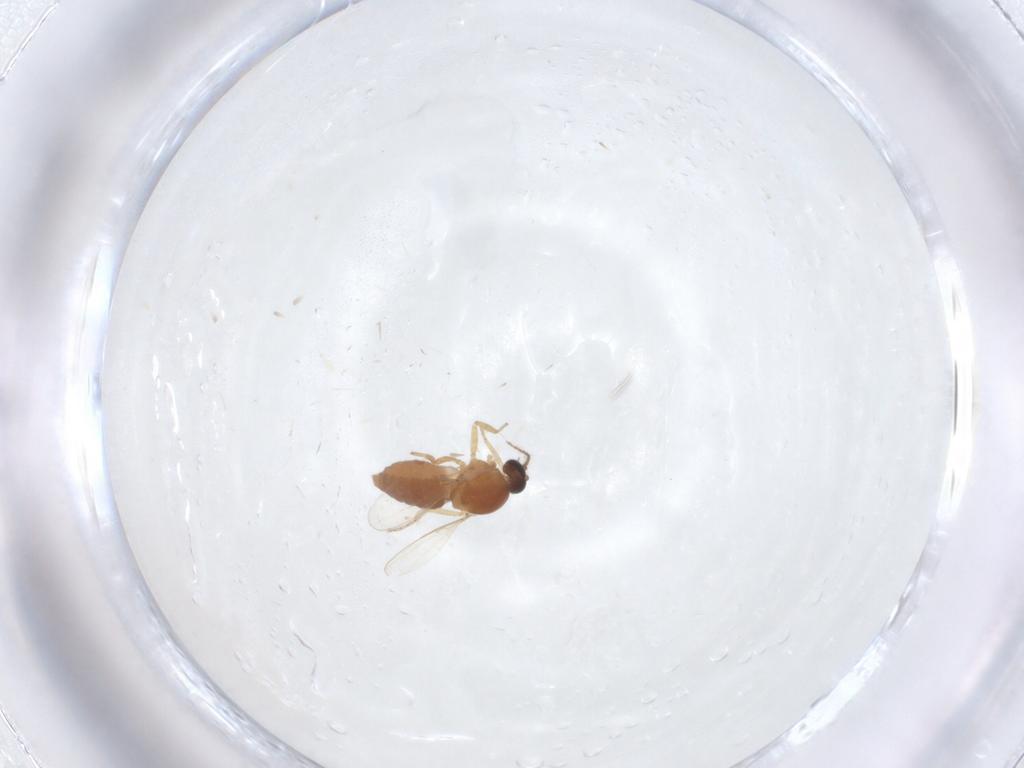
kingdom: Animalia
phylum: Arthropoda
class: Insecta
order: Diptera
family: Ceratopogonidae
